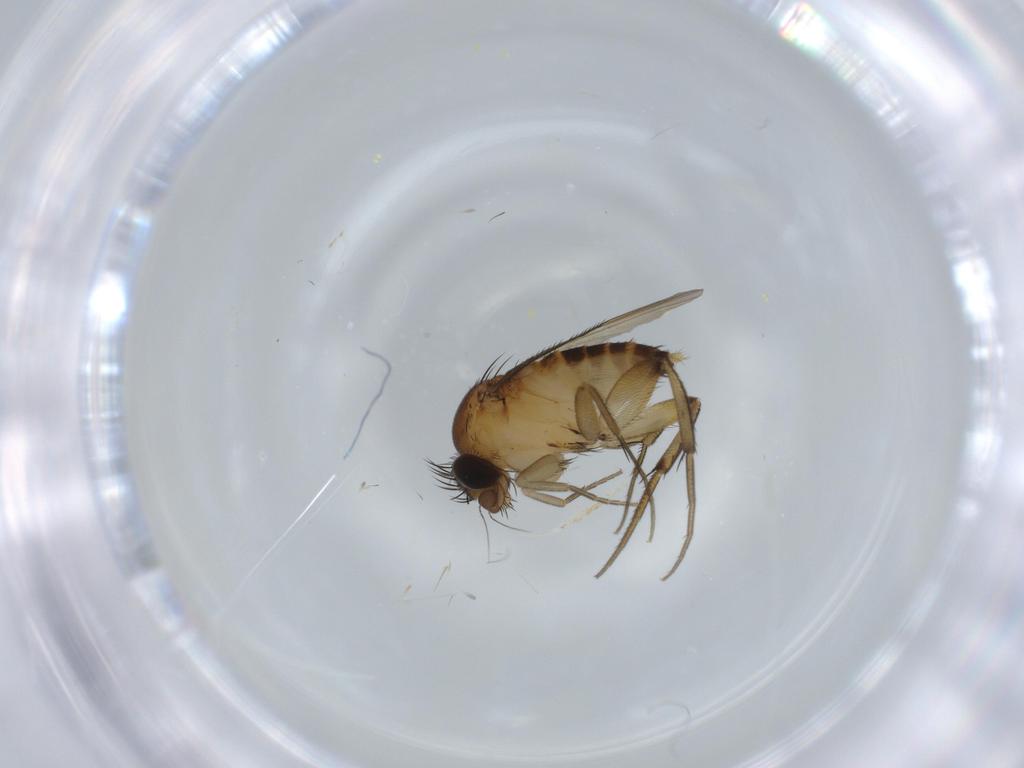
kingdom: Animalia
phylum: Arthropoda
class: Insecta
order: Diptera
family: Phoridae
